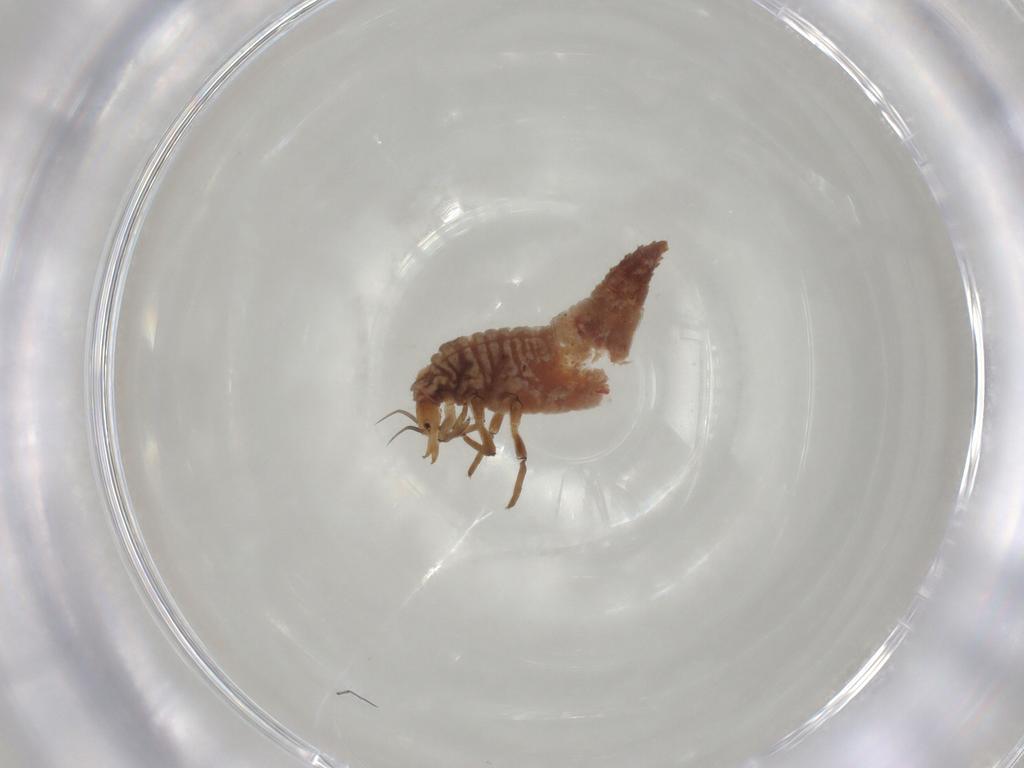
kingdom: Animalia
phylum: Arthropoda
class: Insecta
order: Neuroptera
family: Hemerobiidae
